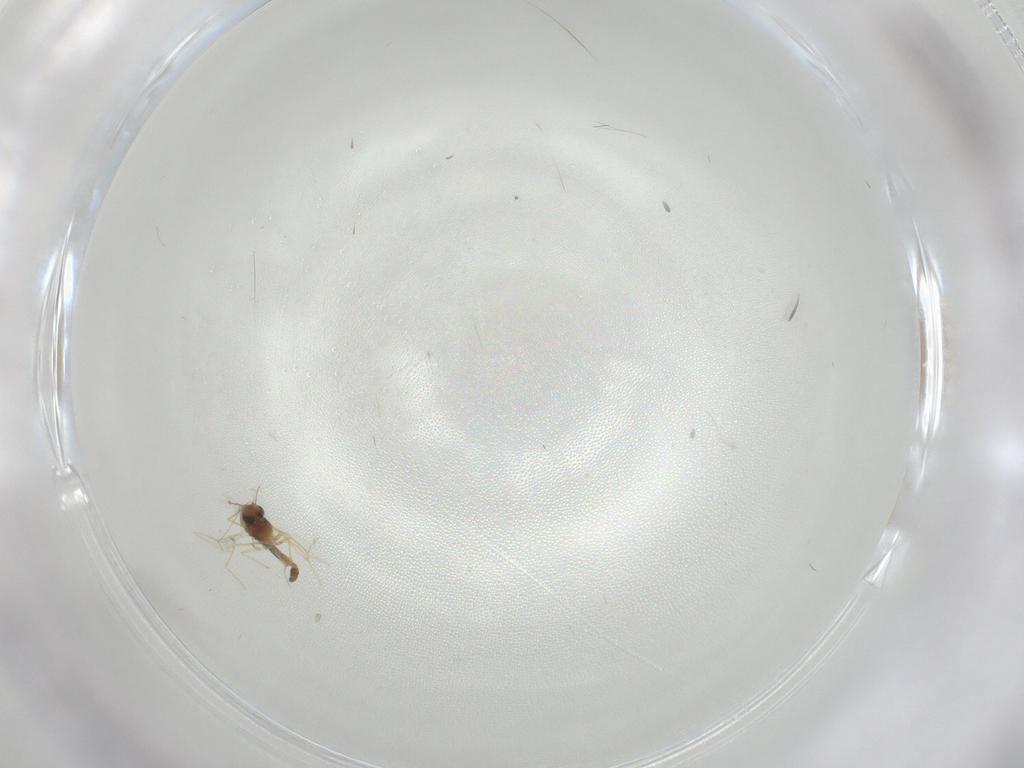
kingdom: Animalia
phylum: Arthropoda
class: Insecta
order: Diptera
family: Chironomidae
